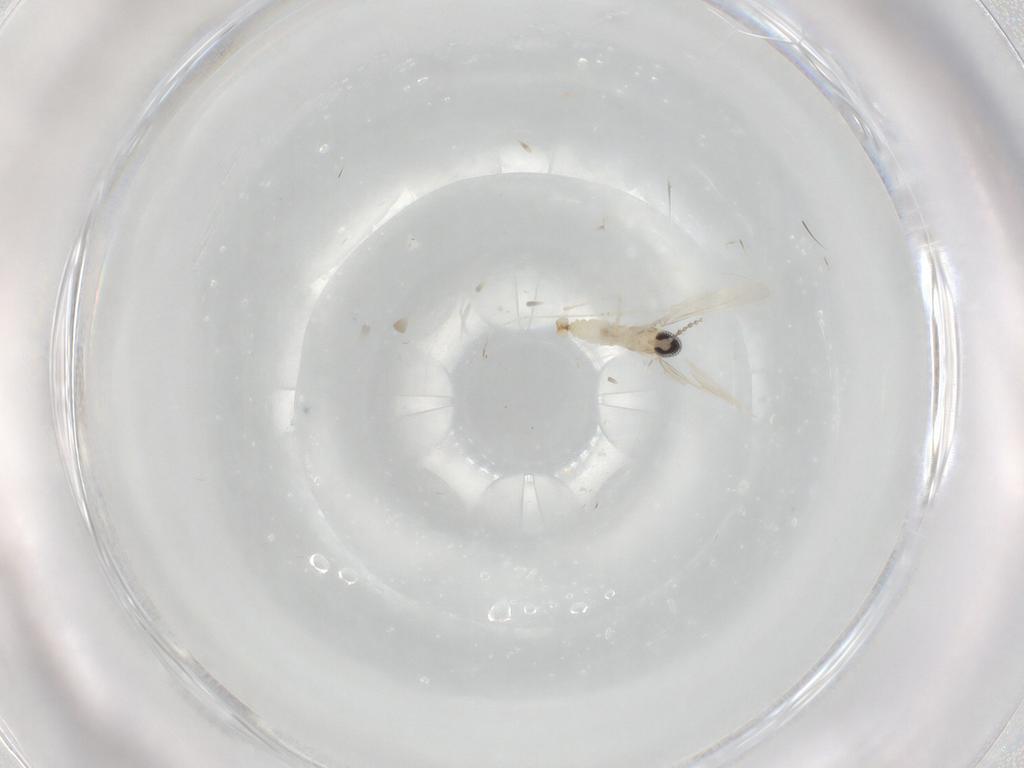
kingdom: Animalia
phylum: Arthropoda
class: Insecta
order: Diptera
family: Cecidomyiidae
